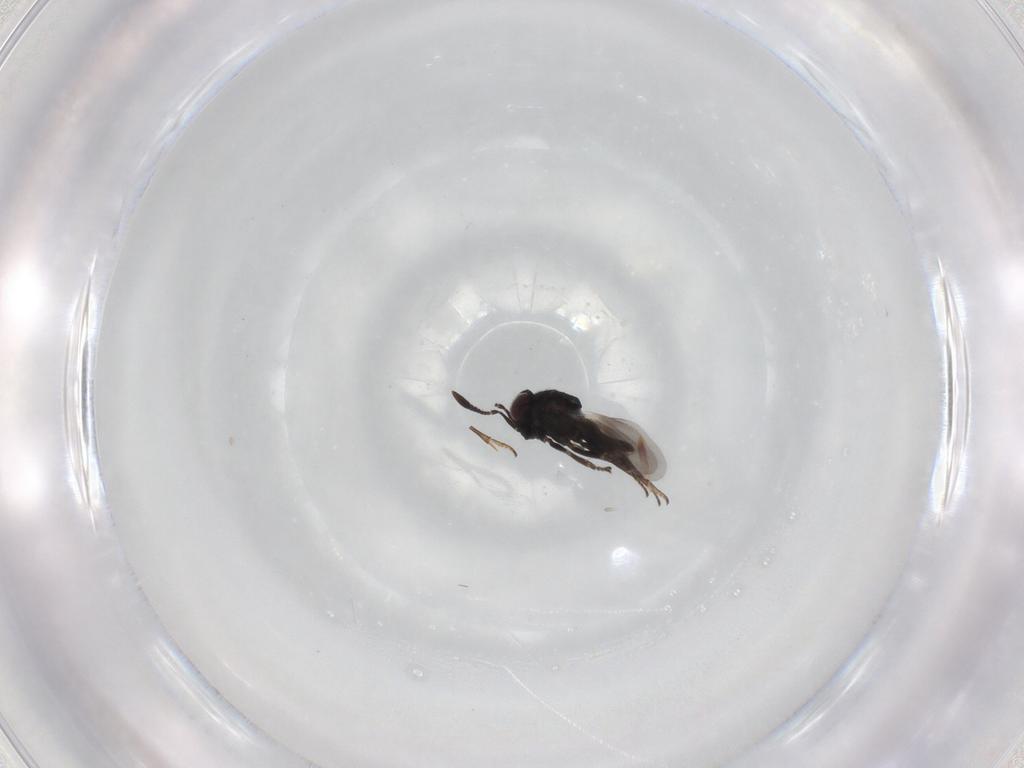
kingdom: Animalia
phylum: Arthropoda
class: Insecta
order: Hymenoptera
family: Encyrtidae
